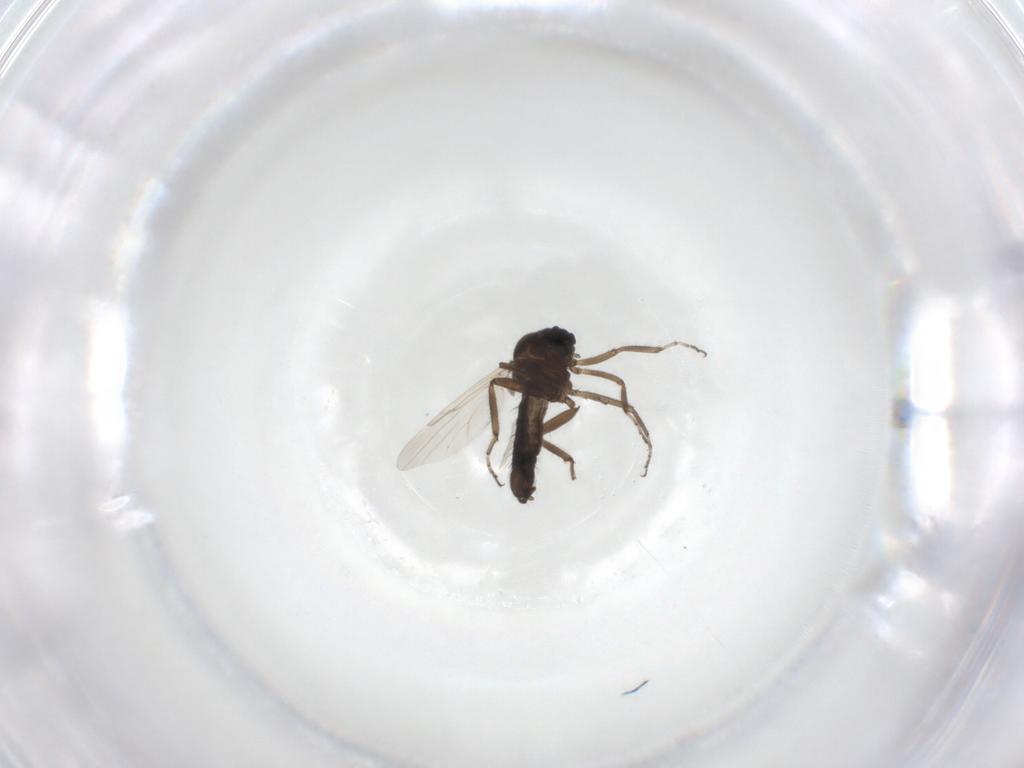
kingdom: Animalia
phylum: Arthropoda
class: Insecta
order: Diptera
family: Ceratopogonidae
